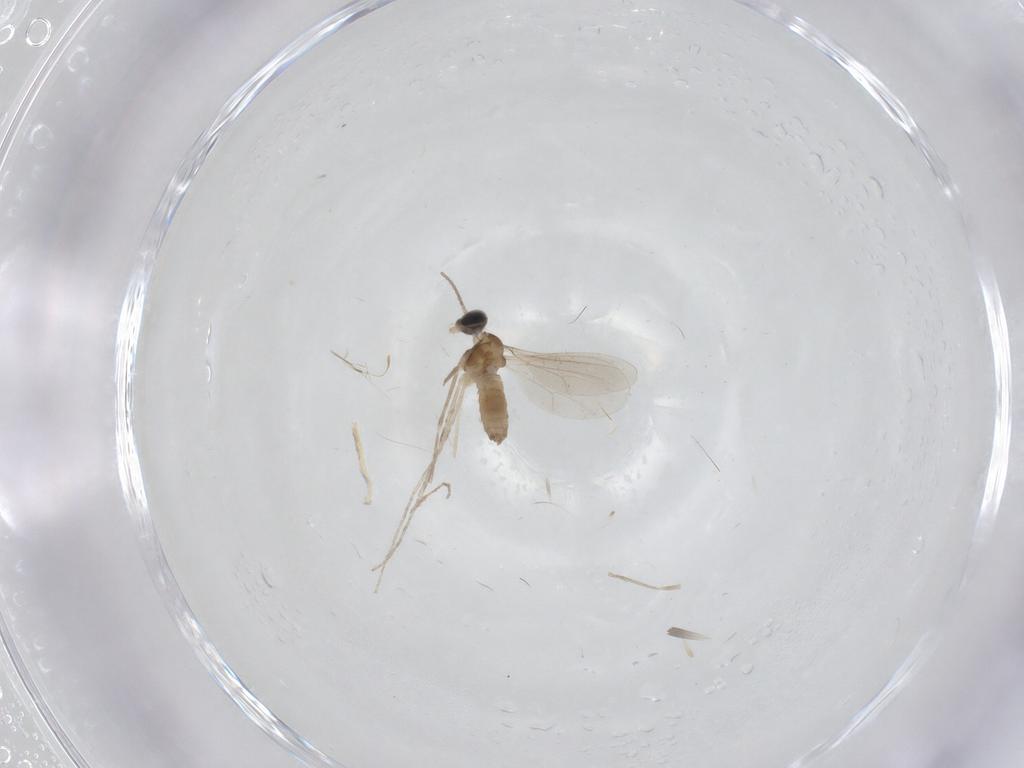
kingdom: Animalia
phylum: Arthropoda
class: Insecta
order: Diptera
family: Cecidomyiidae
